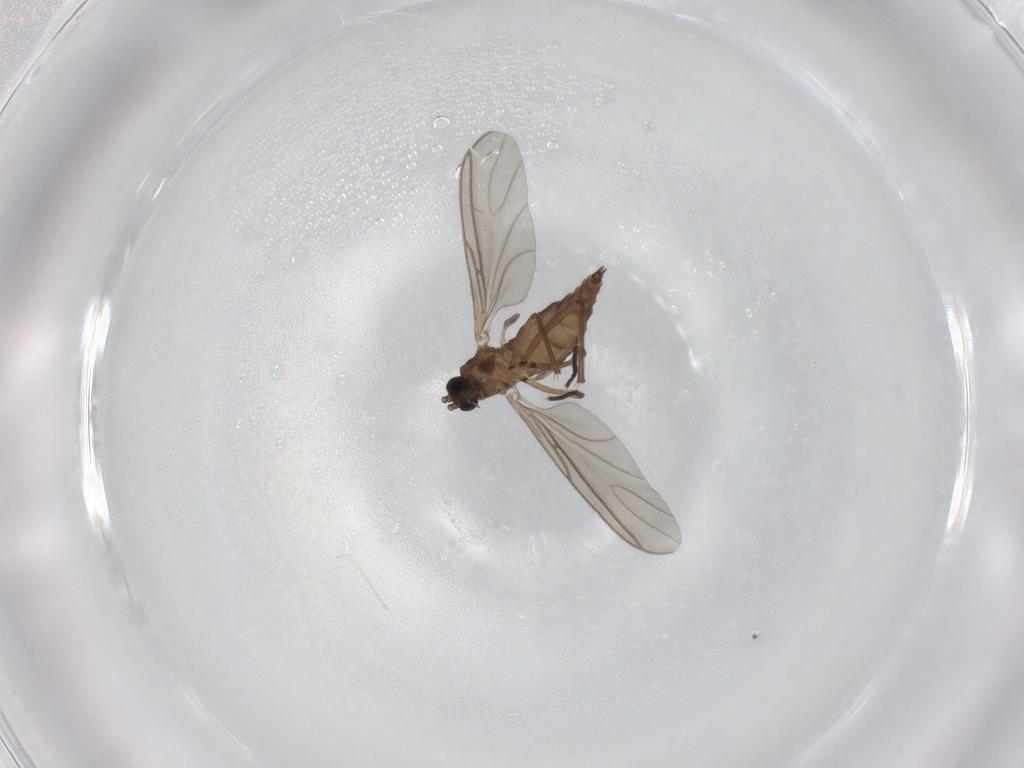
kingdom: Animalia
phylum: Arthropoda
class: Insecta
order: Diptera
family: Sciaridae
